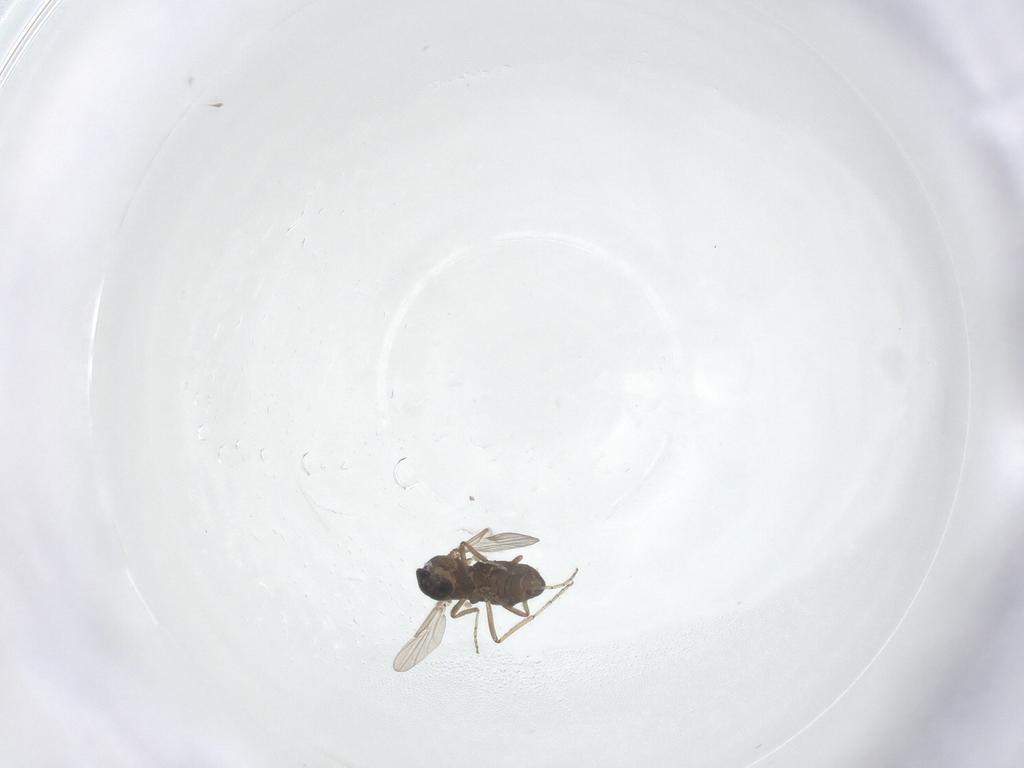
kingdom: Animalia
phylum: Arthropoda
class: Insecta
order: Diptera
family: Ceratopogonidae
